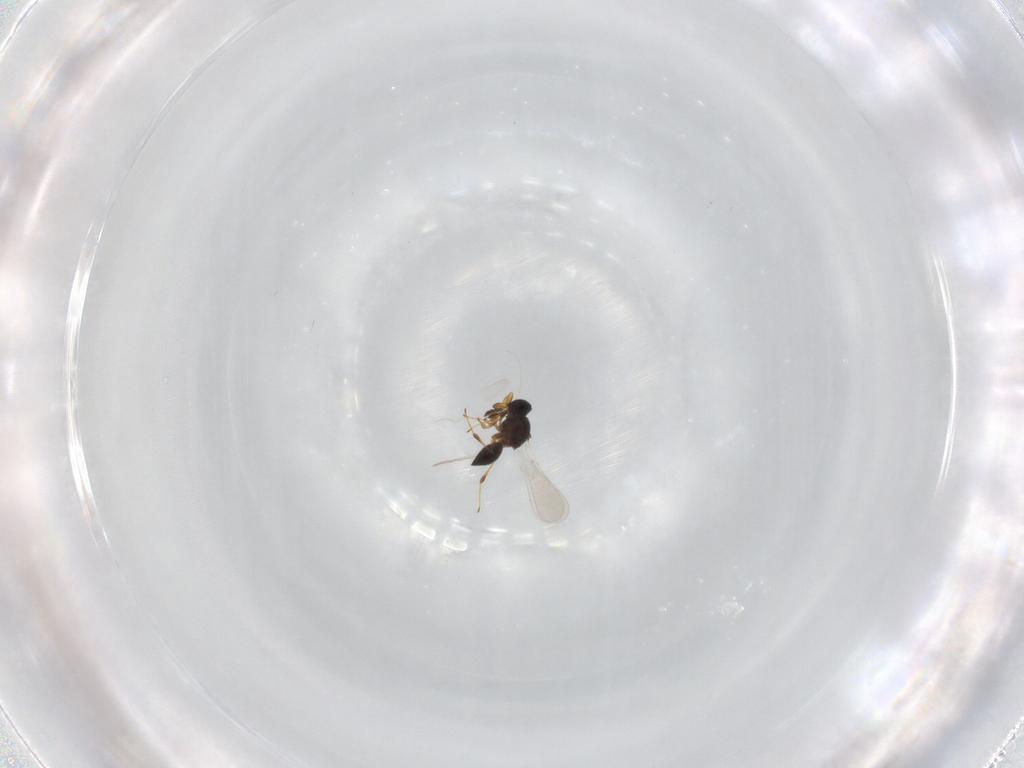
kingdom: Animalia
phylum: Arthropoda
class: Insecta
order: Hymenoptera
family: Platygastridae
